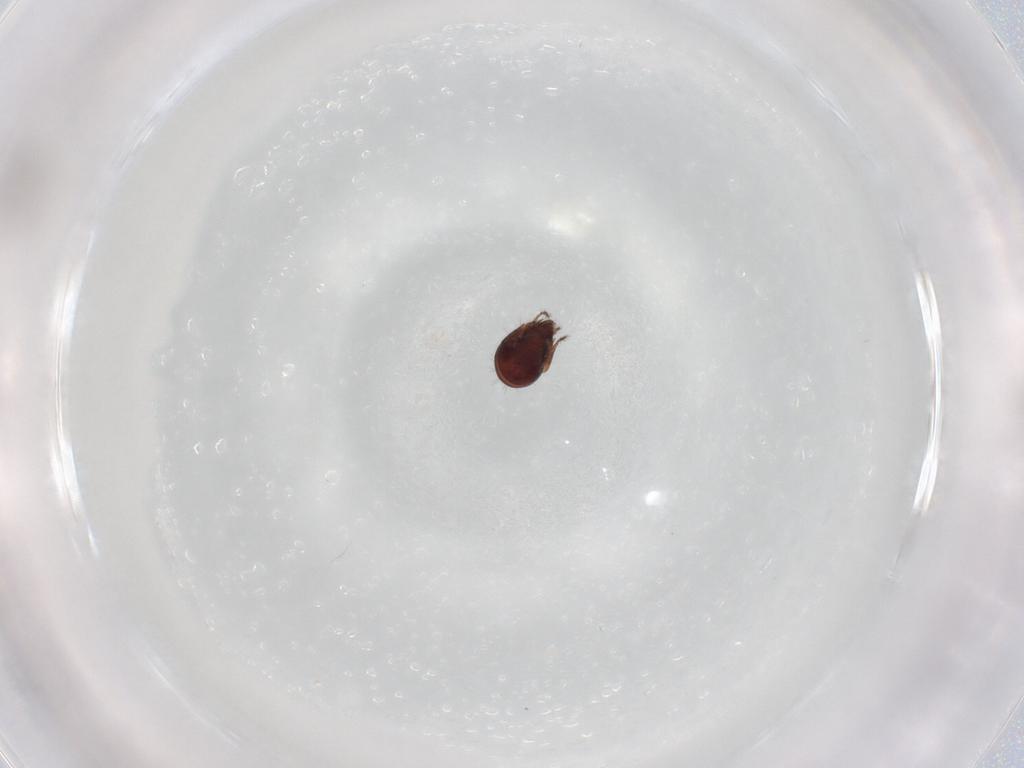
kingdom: Animalia
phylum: Arthropoda
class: Arachnida
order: Sarcoptiformes
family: Humerobatidae
